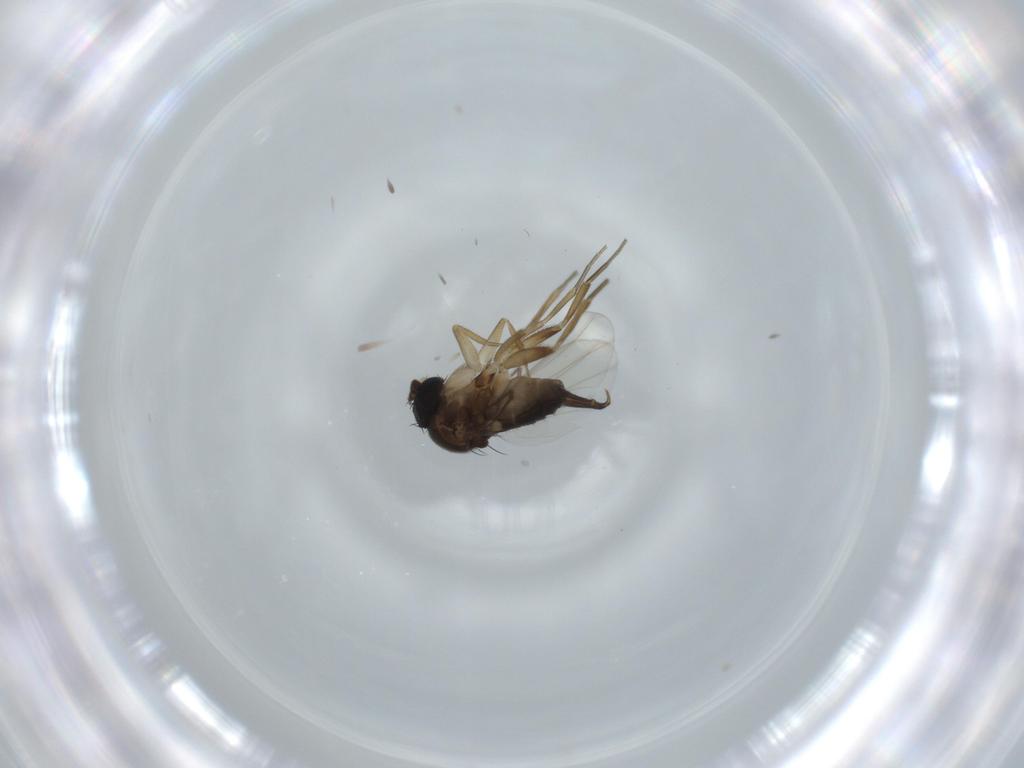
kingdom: Animalia
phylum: Arthropoda
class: Insecta
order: Diptera
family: Phoridae
